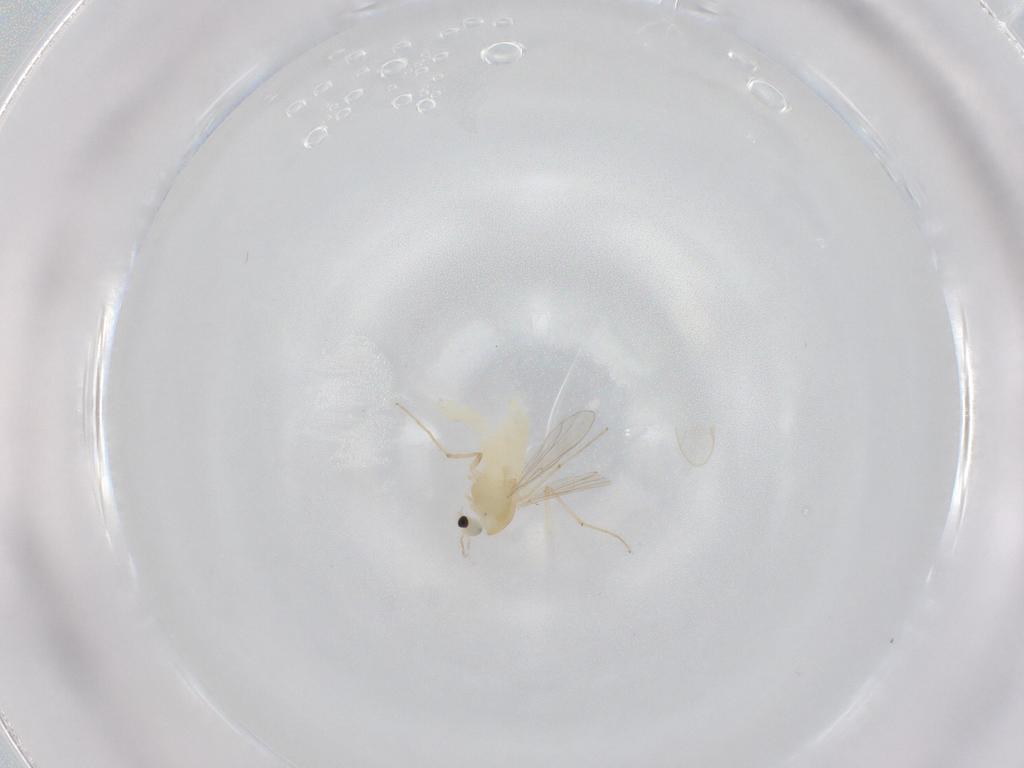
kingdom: Animalia
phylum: Arthropoda
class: Insecta
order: Diptera
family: Chironomidae
